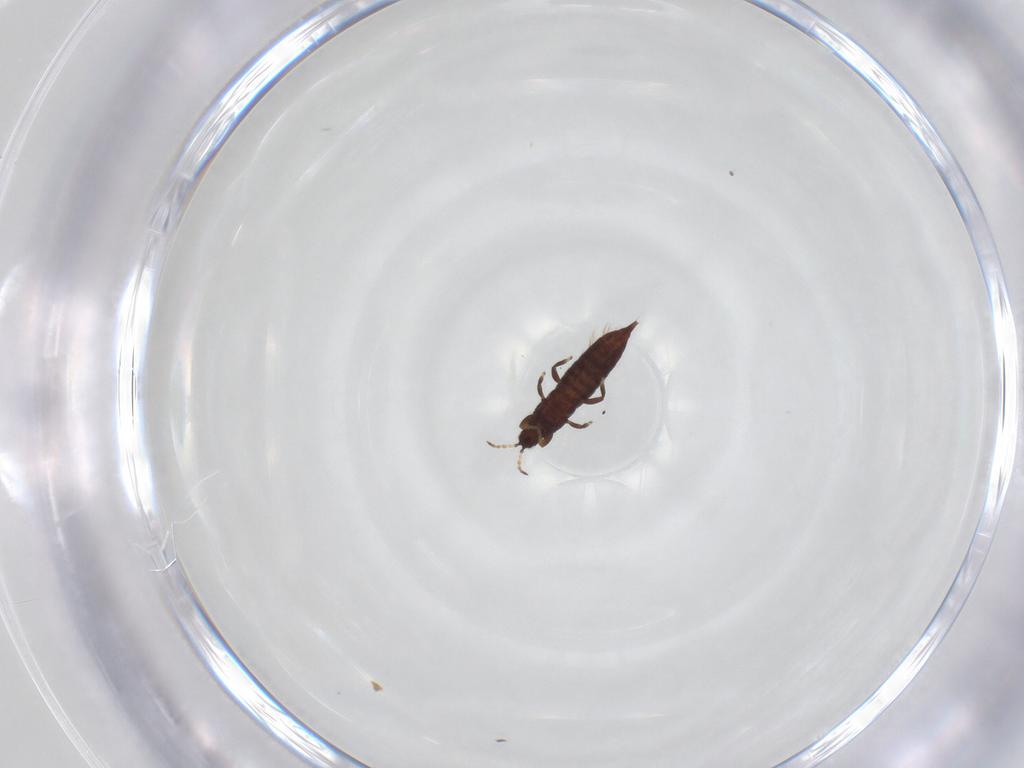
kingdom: Animalia
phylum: Arthropoda
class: Insecta
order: Thysanoptera
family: Phlaeothripidae
